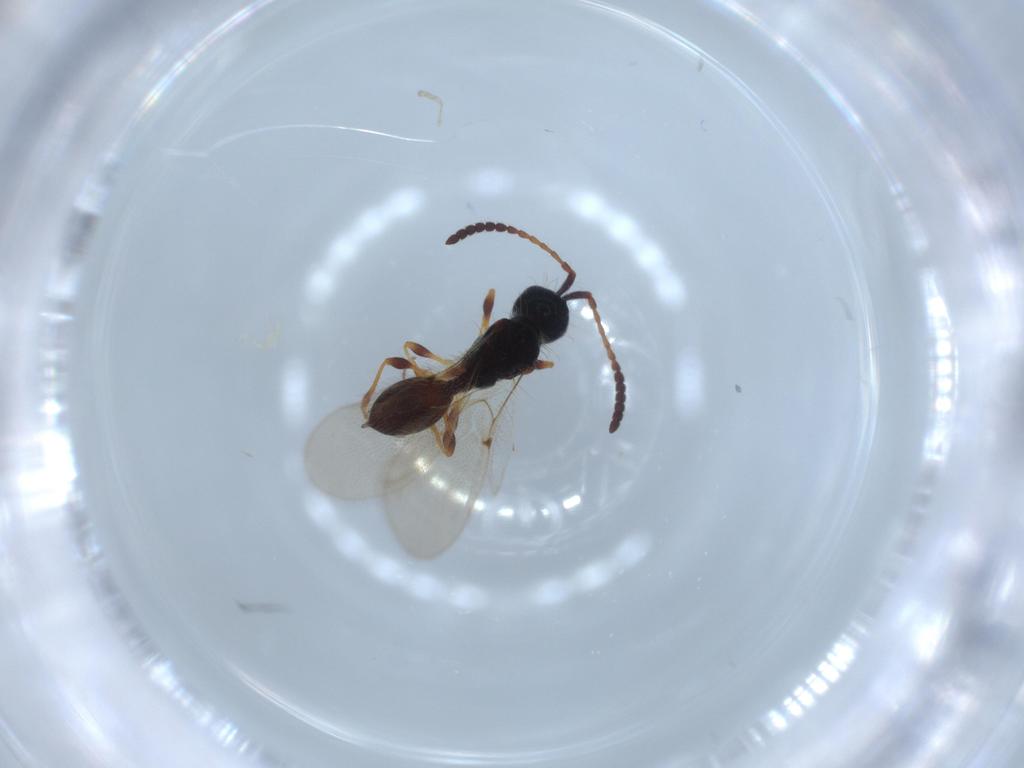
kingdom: Animalia
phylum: Arthropoda
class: Insecta
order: Hymenoptera
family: Diapriidae
